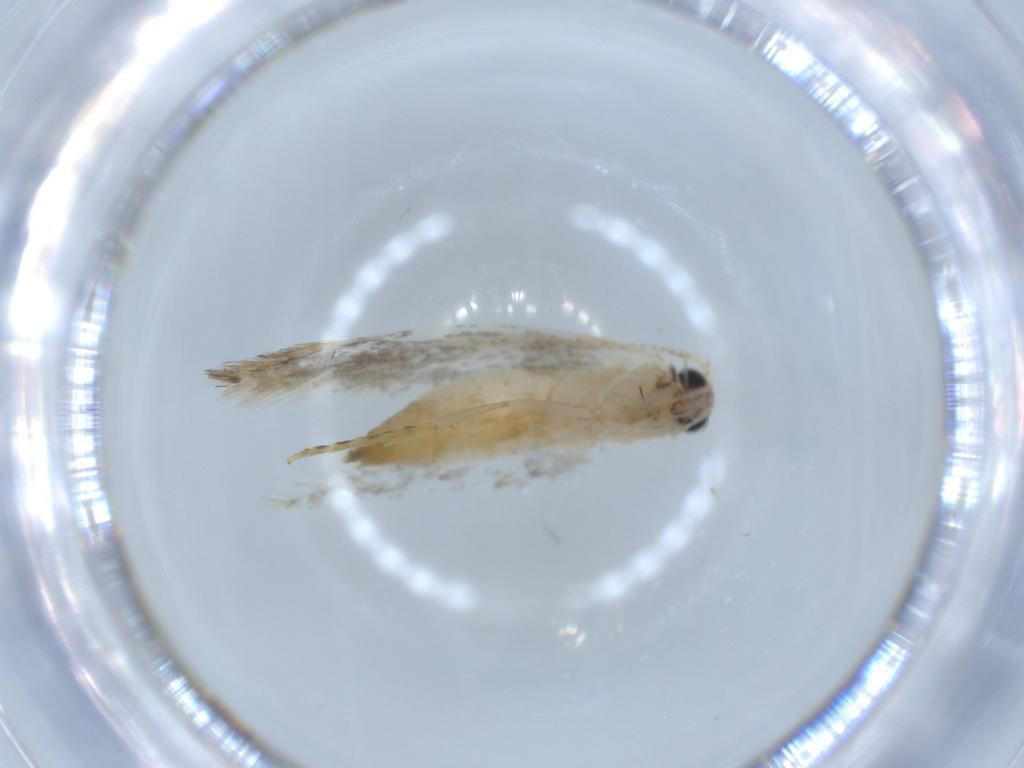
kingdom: Animalia
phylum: Arthropoda
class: Insecta
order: Lepidoptera
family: Tineidae
